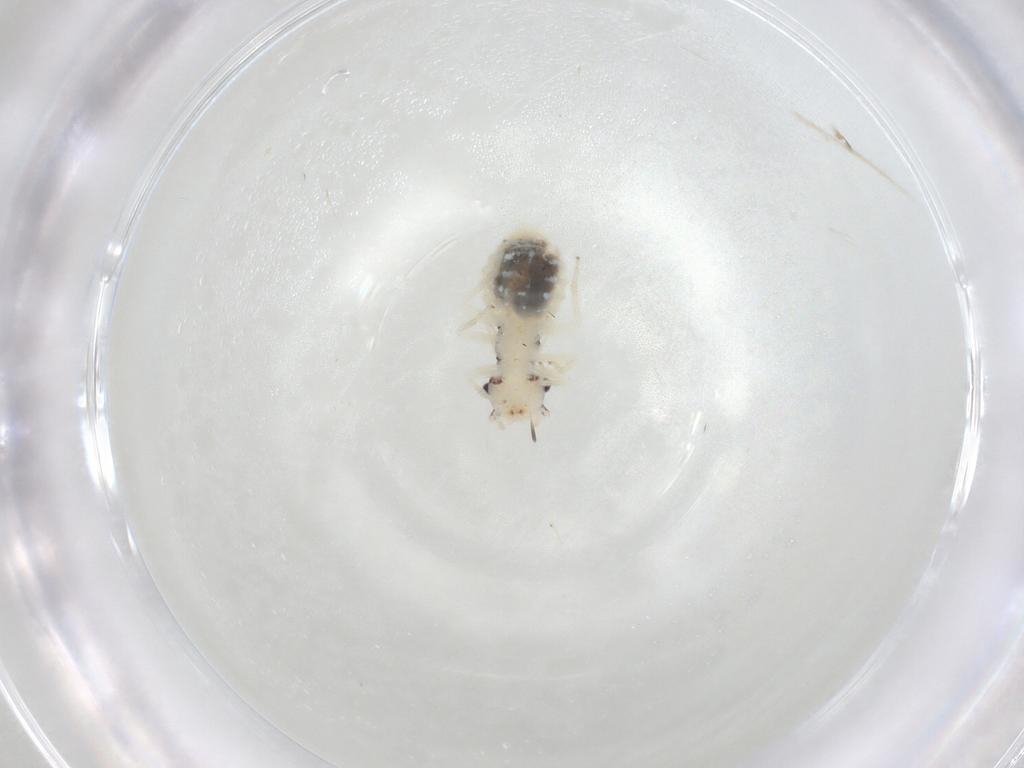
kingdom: Animalia
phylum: Arthropoda
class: Insecta
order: Psocodea
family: Philotarsidae
